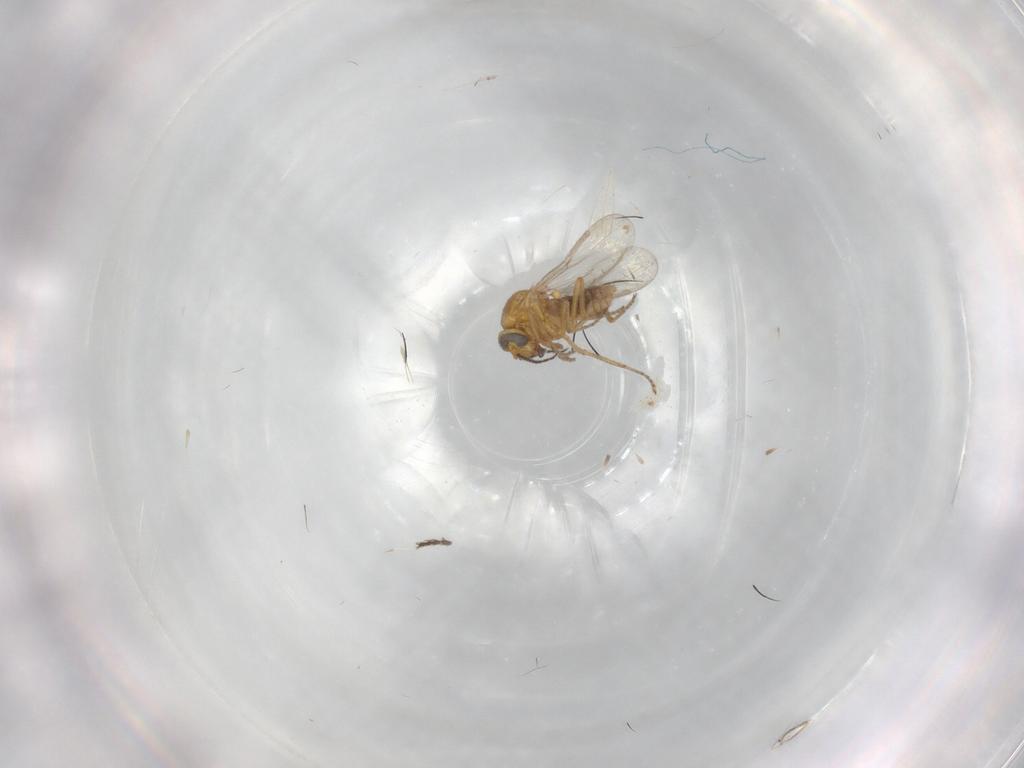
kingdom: Animalia
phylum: Arthropoda
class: Insecta
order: Diptera
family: Ceratopogonidae
